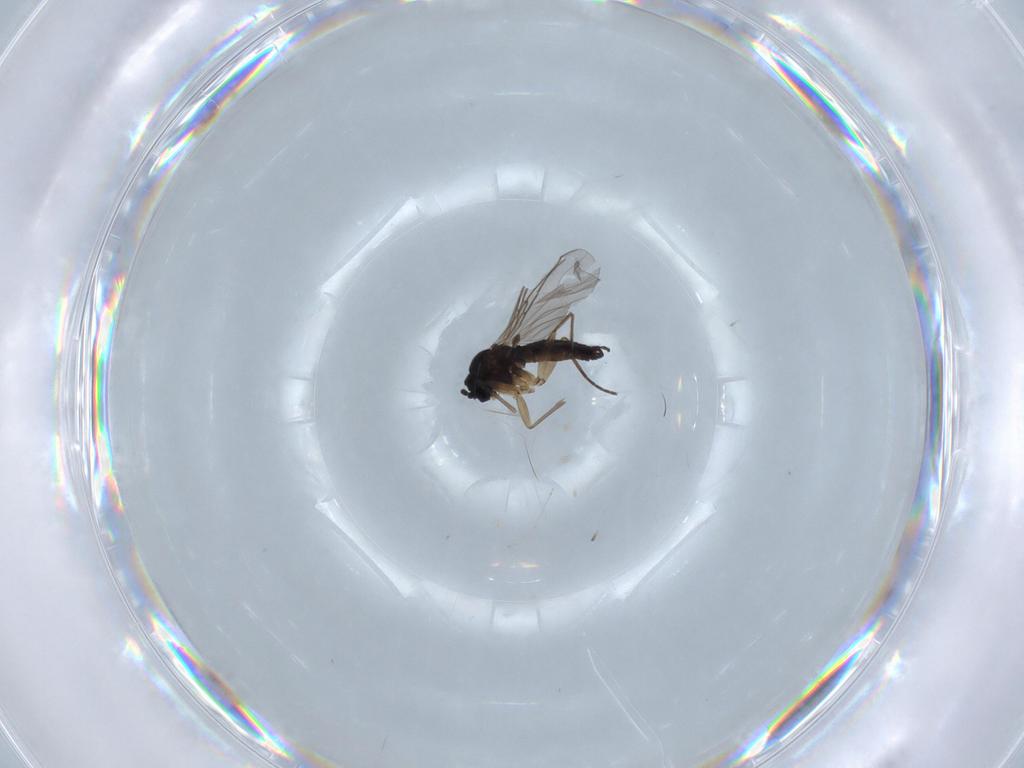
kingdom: Animalia
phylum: Arthropoda
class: Insecta
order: Diptera
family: Sciaridae
